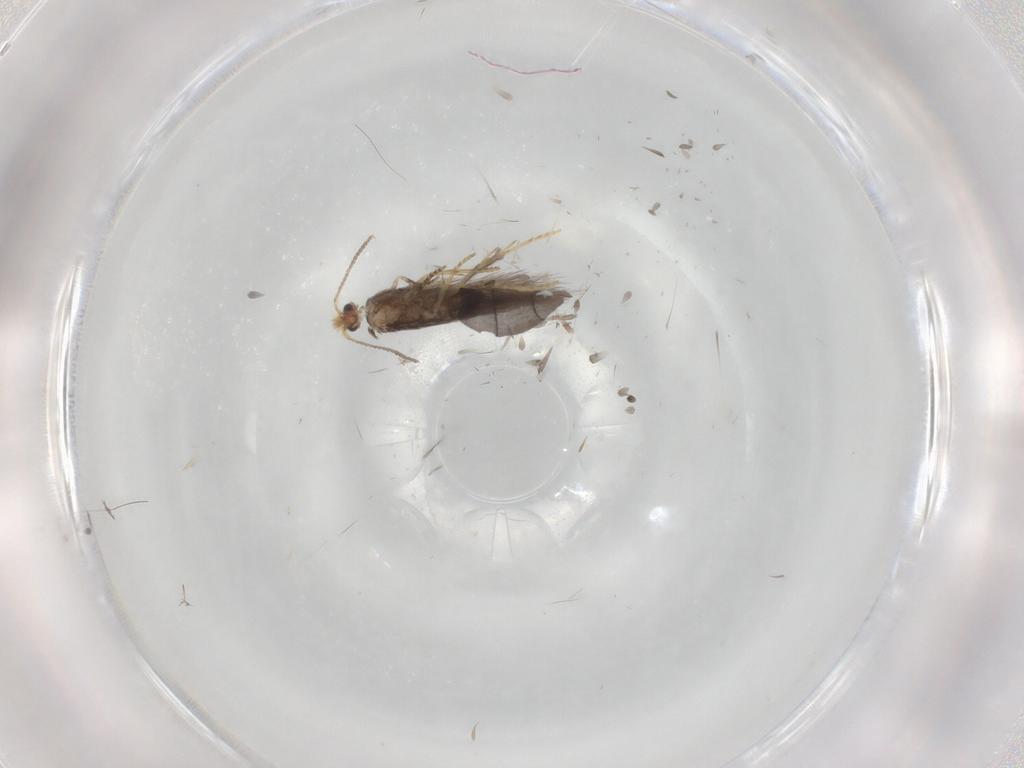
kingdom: Animalia
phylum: Arthropoda
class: Insecta
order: Lepidoptera
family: Nepticulidae
